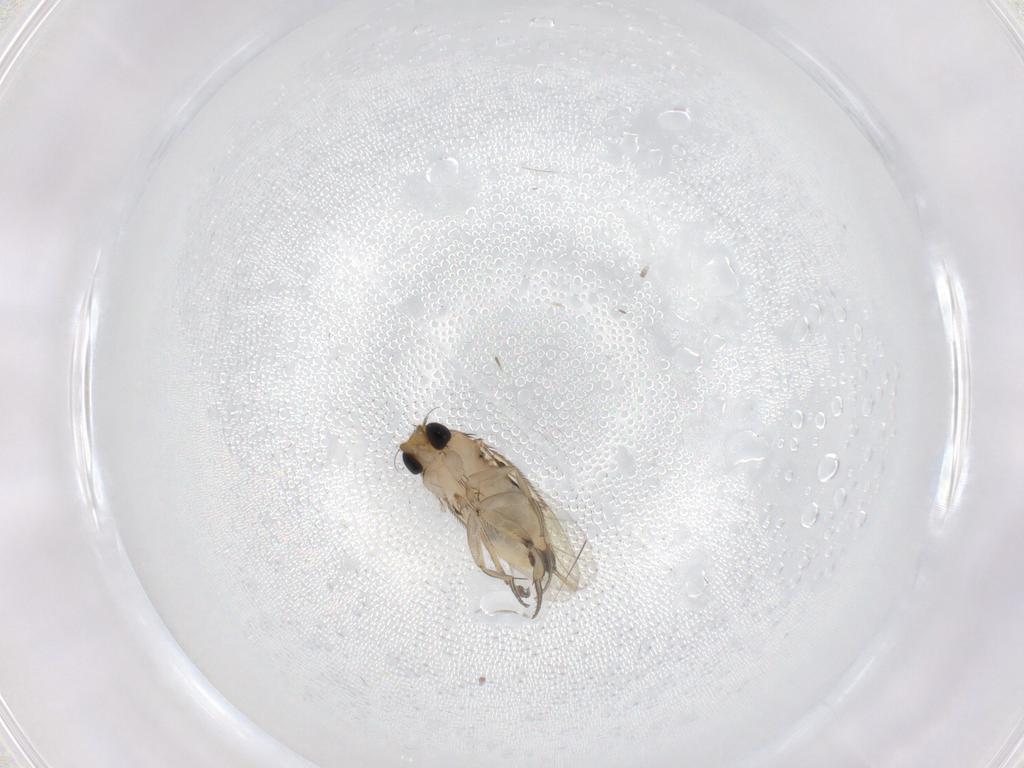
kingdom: Animalia
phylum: Arthropoda
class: Insecta
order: Diptera
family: Phoridae
